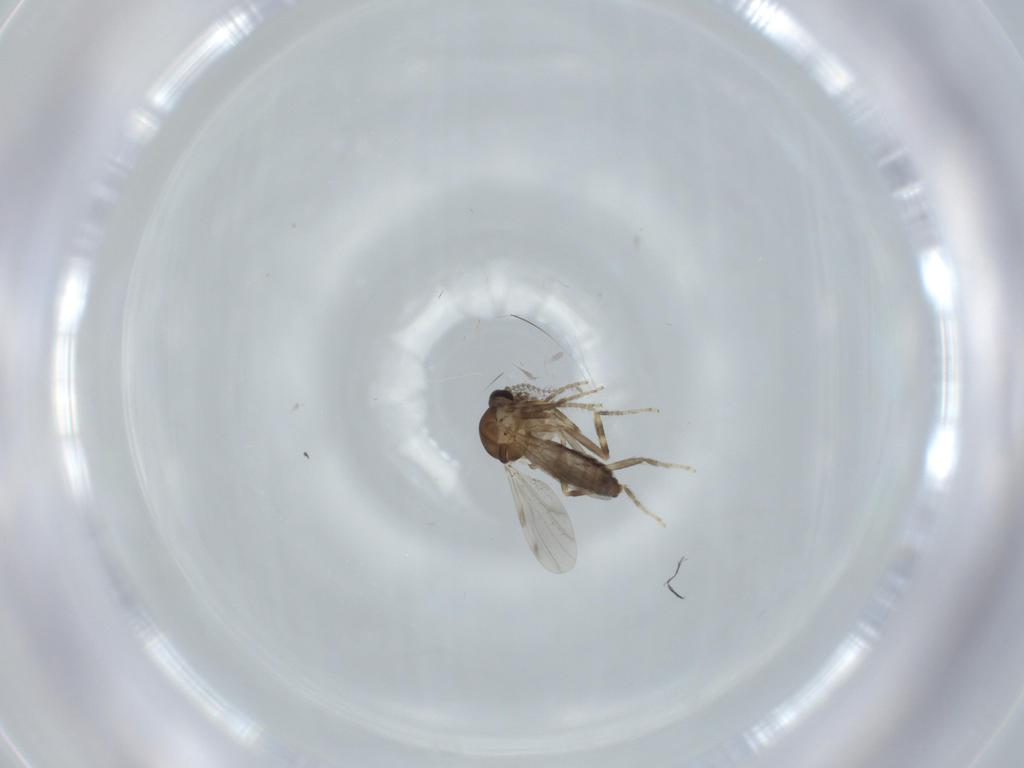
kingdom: Animalia
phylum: Arthropoda
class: Insecta
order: Diptera
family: Ceratopogonidae
